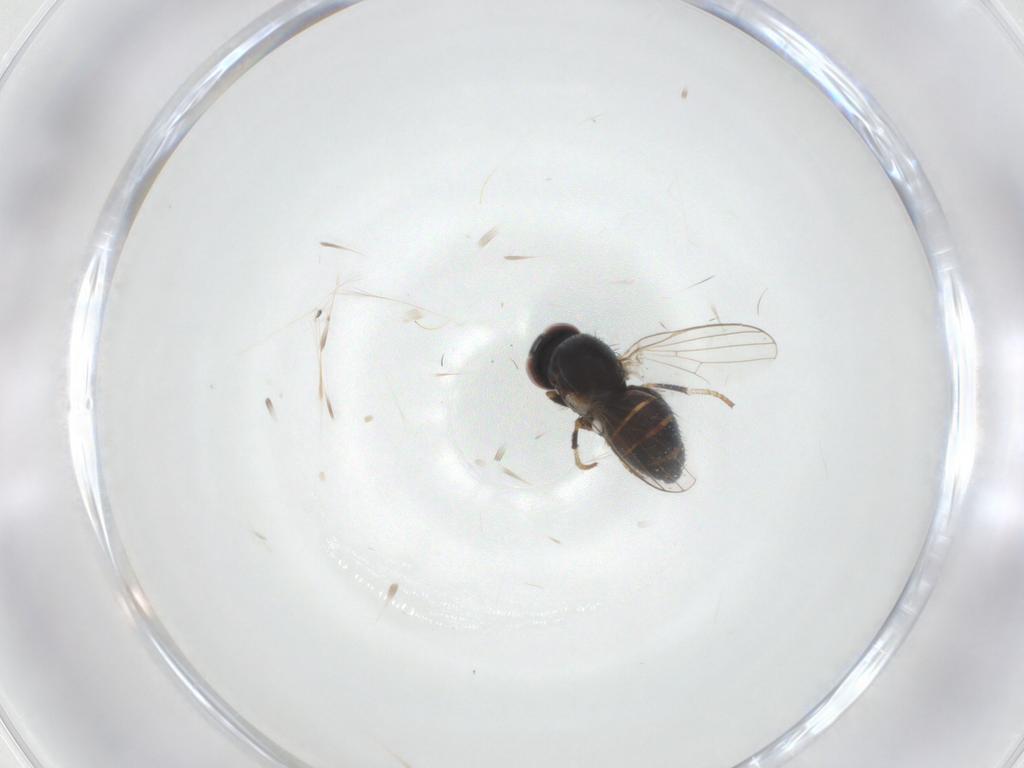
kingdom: Animalia
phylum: Arthropoda
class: Insecta
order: Diptera
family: Chamaemyiidae
